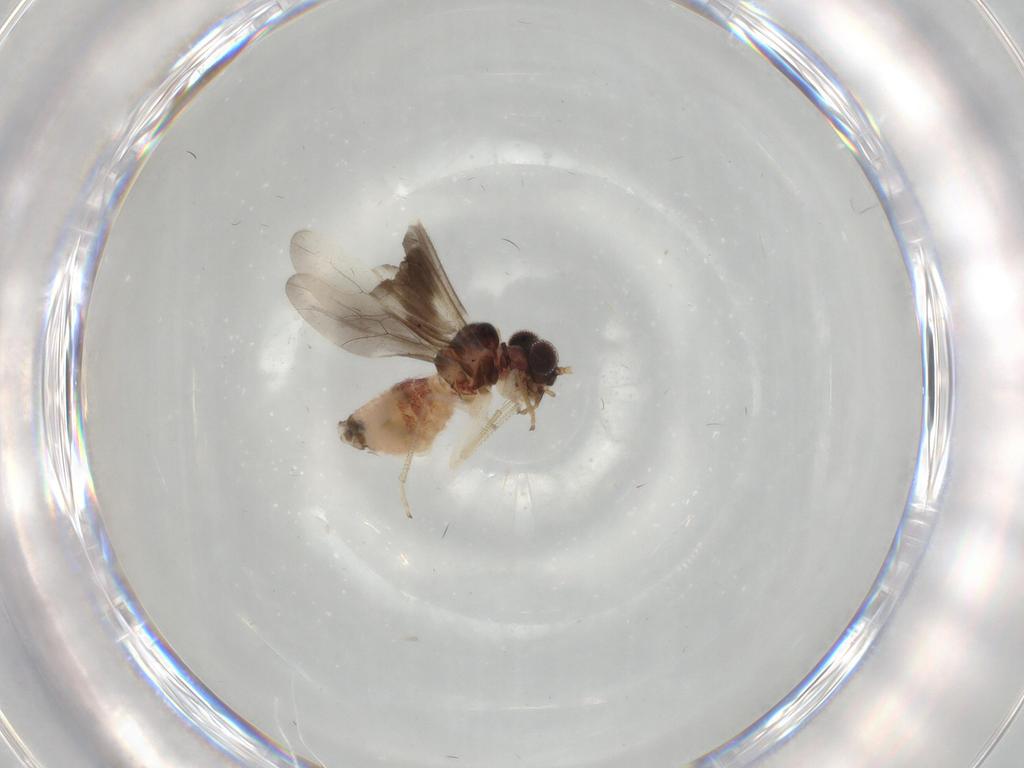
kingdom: Animalia
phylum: Arthropoda
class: Insecta
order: Psocodea
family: Caeciliusidae
